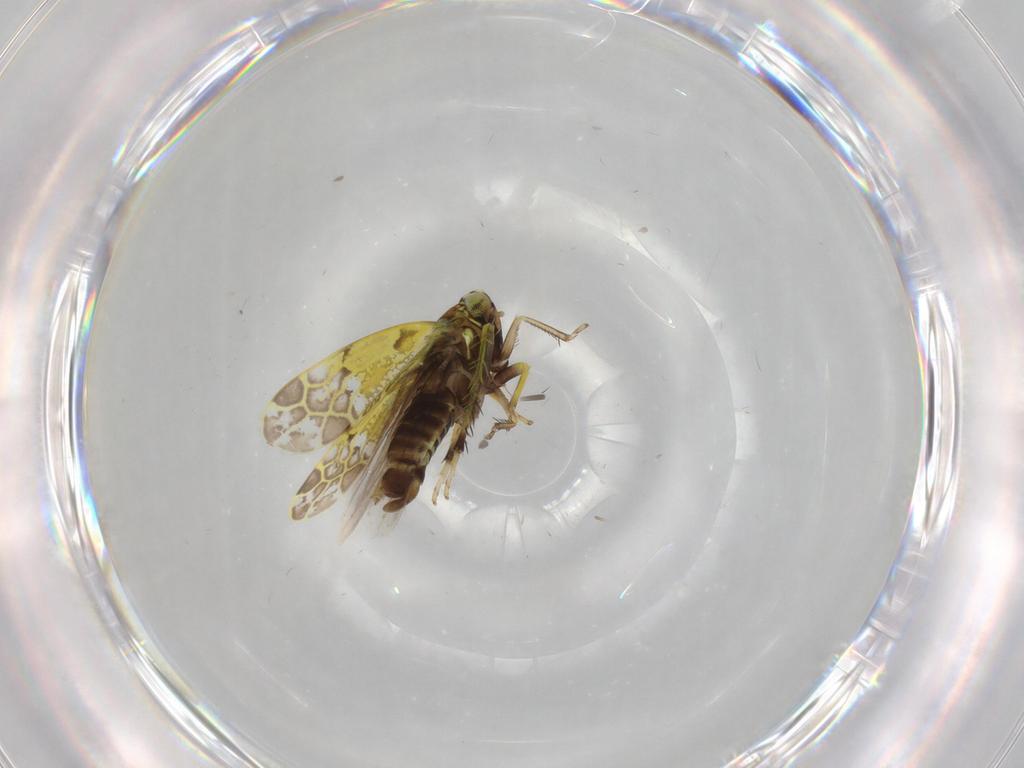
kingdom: Animalia
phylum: Arthropoda
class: Insecta
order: Hemiptera
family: Cicadellidae
